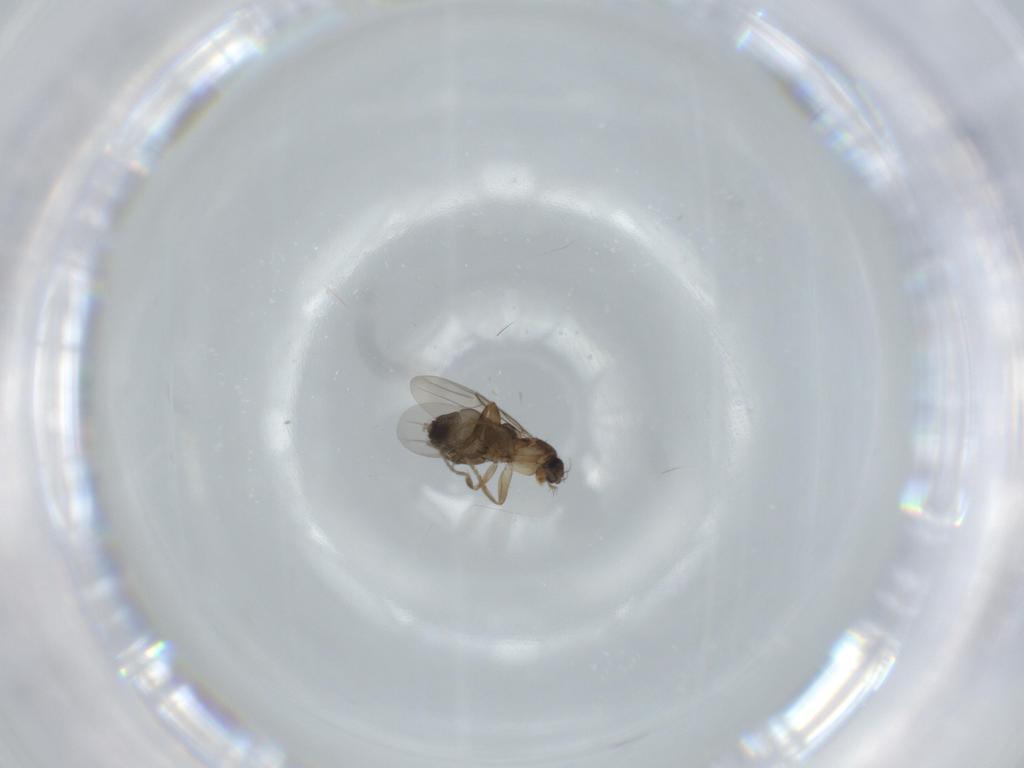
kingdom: Animalia
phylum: Arthropoda
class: Insecta
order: Diptera
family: Phoridae
